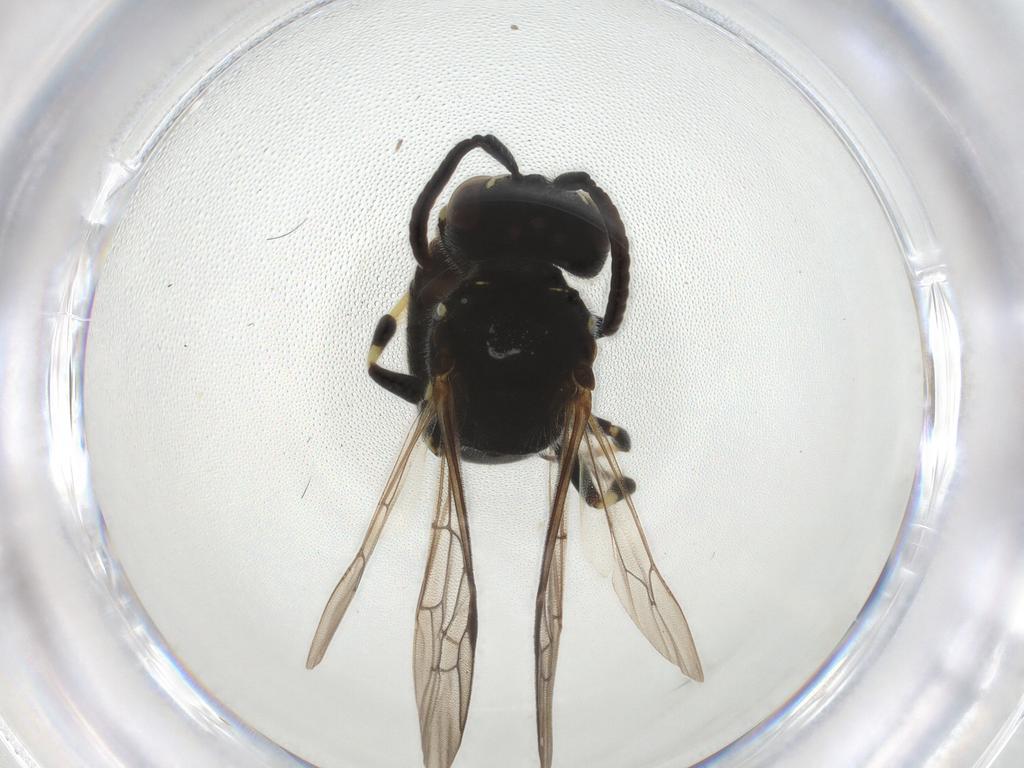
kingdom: Animalia
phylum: Arthropoda
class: Insecta
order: Hymenoptera
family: Colletidae
